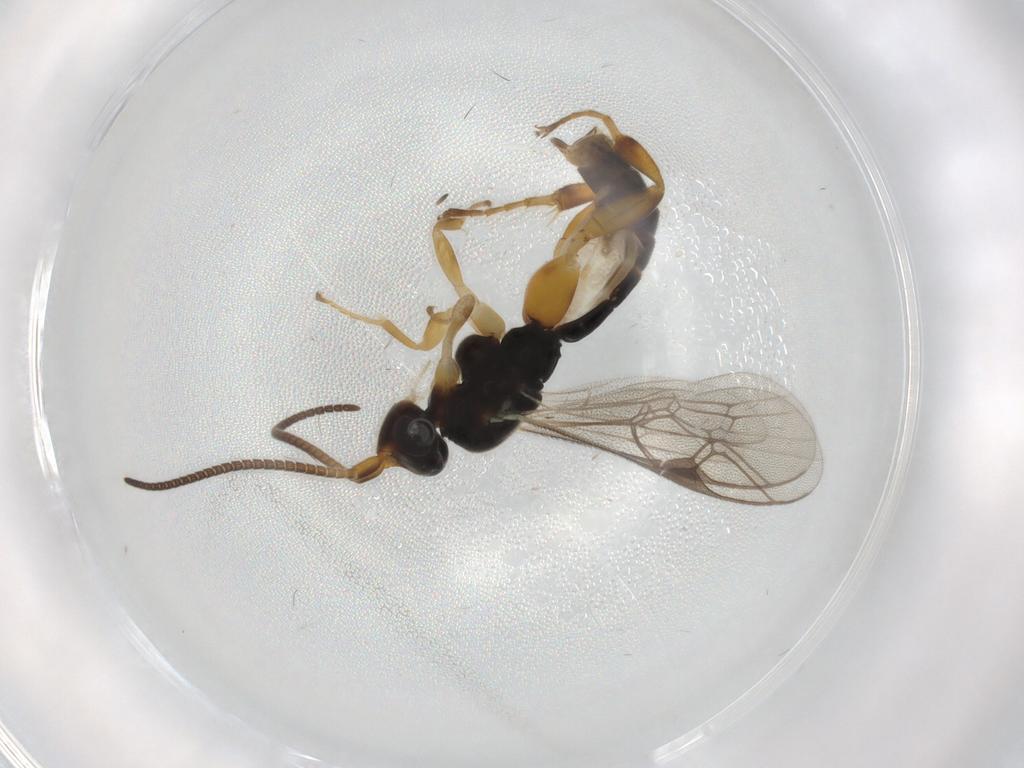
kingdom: Animalia
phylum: Arthropoda
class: Insecta
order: Hymenoptera
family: Ichneumonidae
